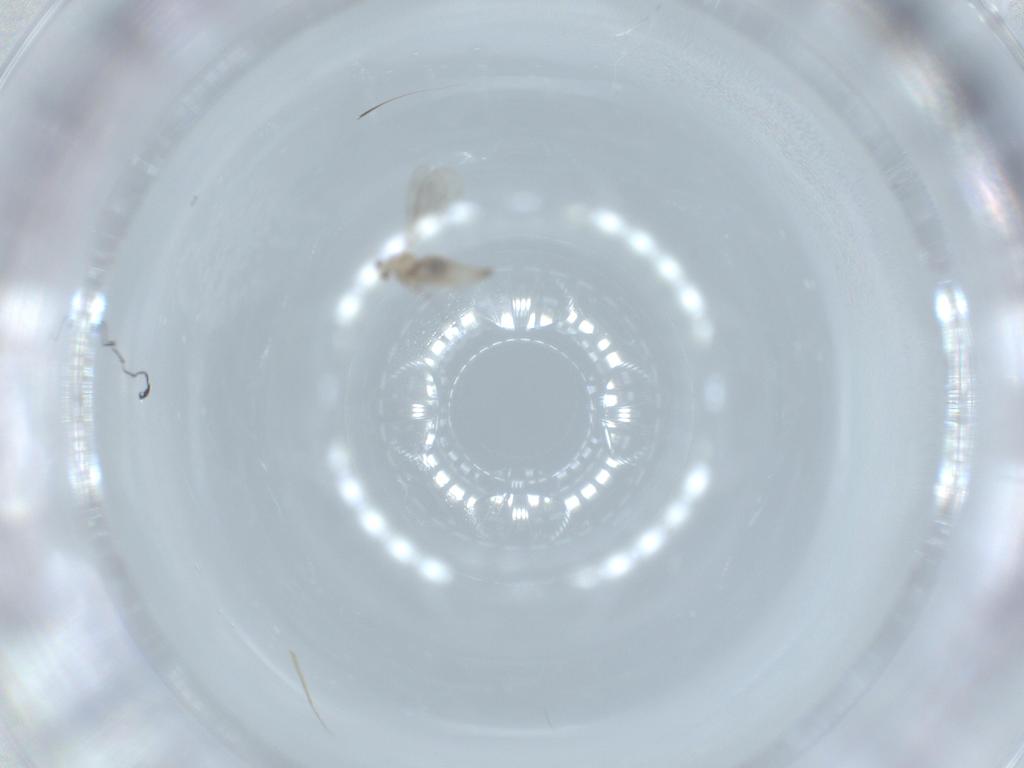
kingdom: Animalia
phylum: Arthropoda
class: Insecta
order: Diptera
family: Cecidomyiidae
